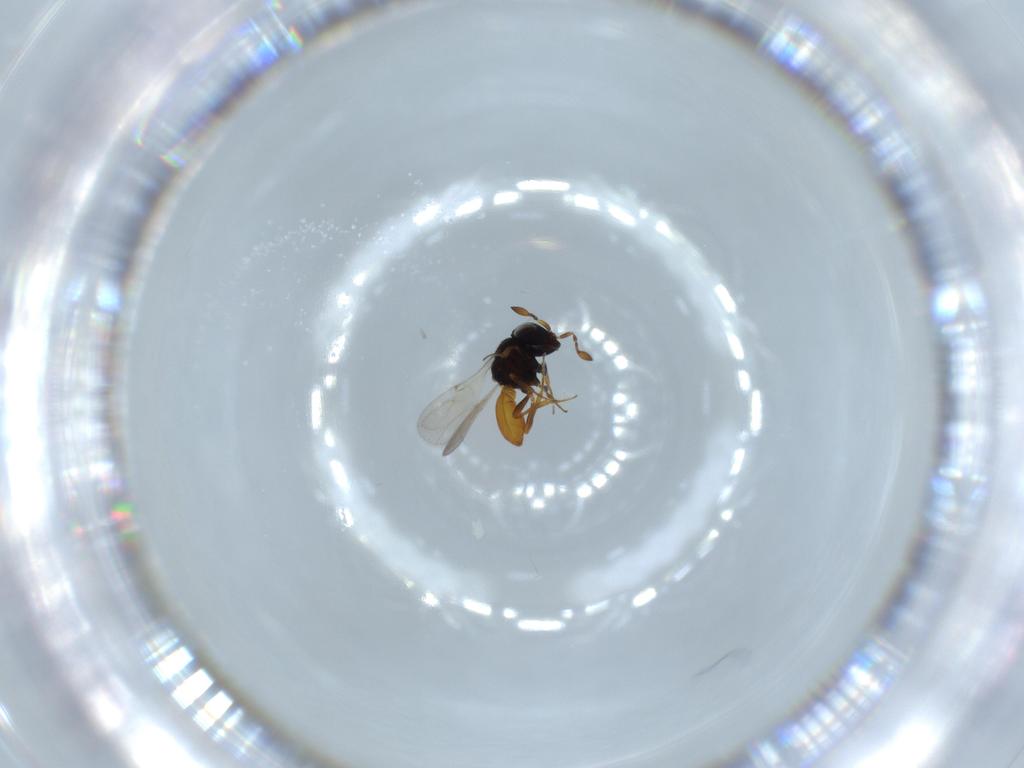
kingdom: Animalia
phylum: Arthropoda
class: Insecta
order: Hymenoptera
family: Scelionidae
